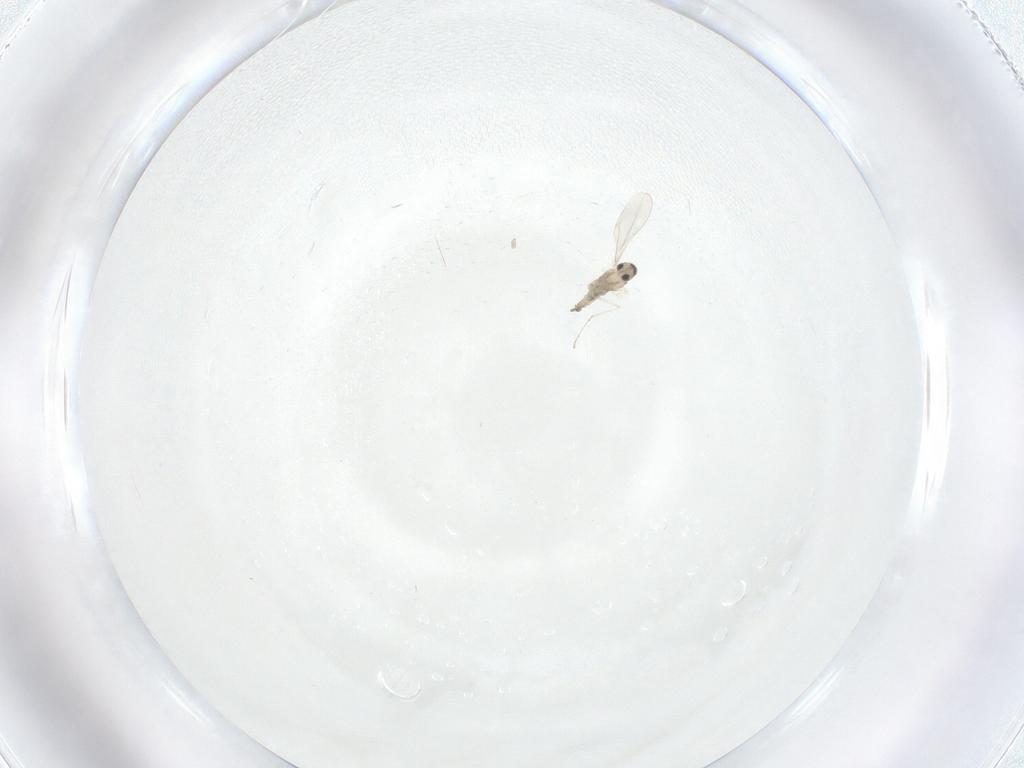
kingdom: Animalia
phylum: Arthropoda
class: Insecta
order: Diptera
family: Cecidomyiidae
